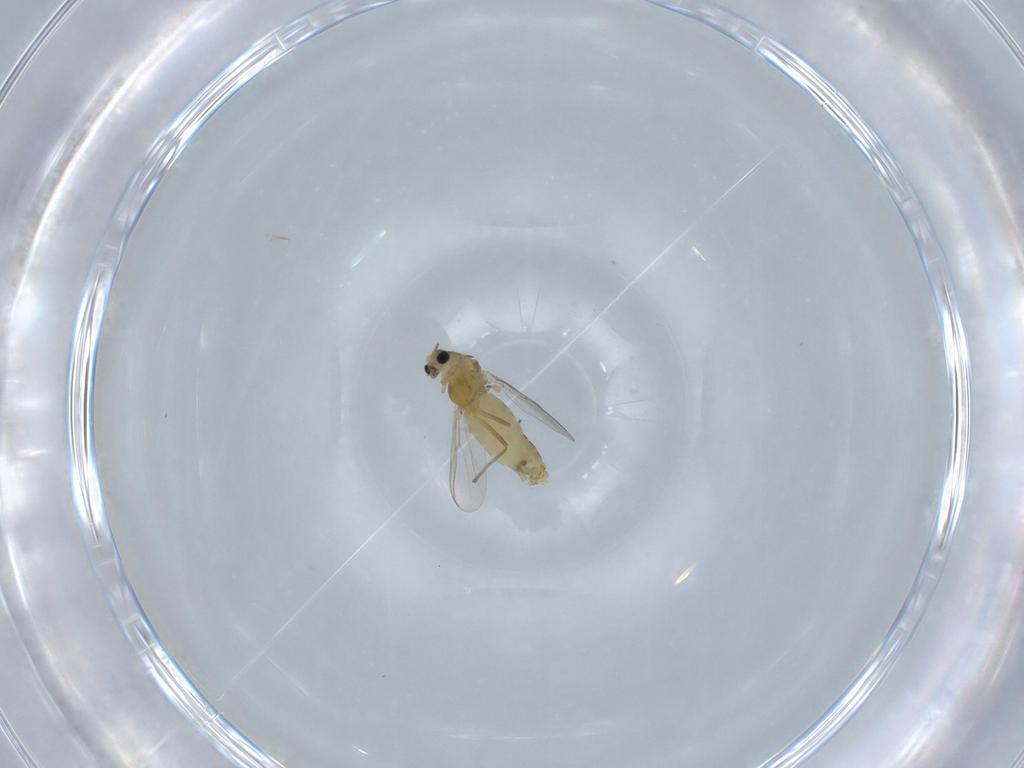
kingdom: Animalia
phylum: Arthropoda
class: Insecta
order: Diptera
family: Chironomidae
